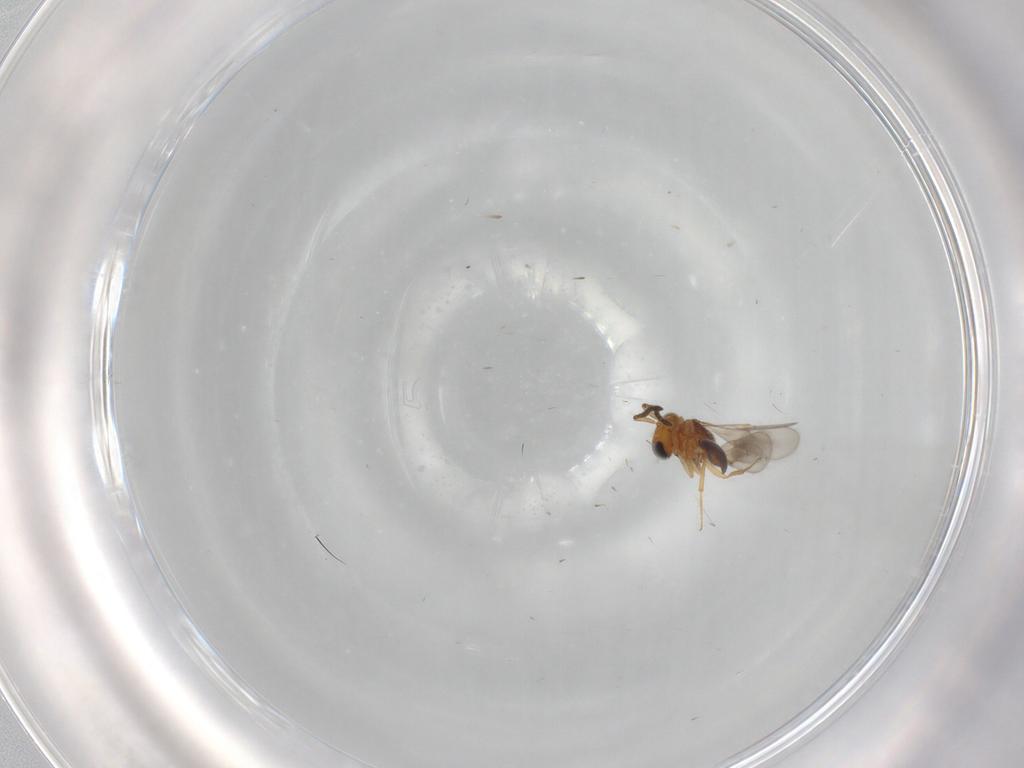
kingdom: Animalia
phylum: Arthropoda
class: Insecta
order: Hymenoptera
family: Scelionidae
